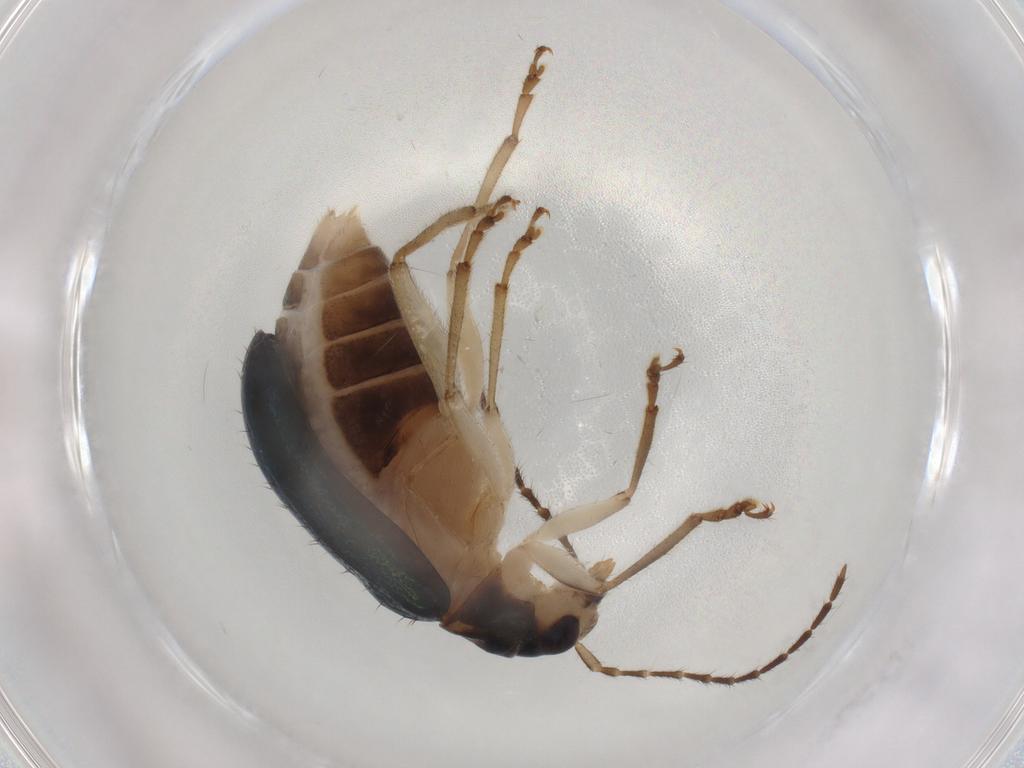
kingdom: Animalia
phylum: Arthropoda
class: Insecta
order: Coleoptera
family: Chrysomelidae
